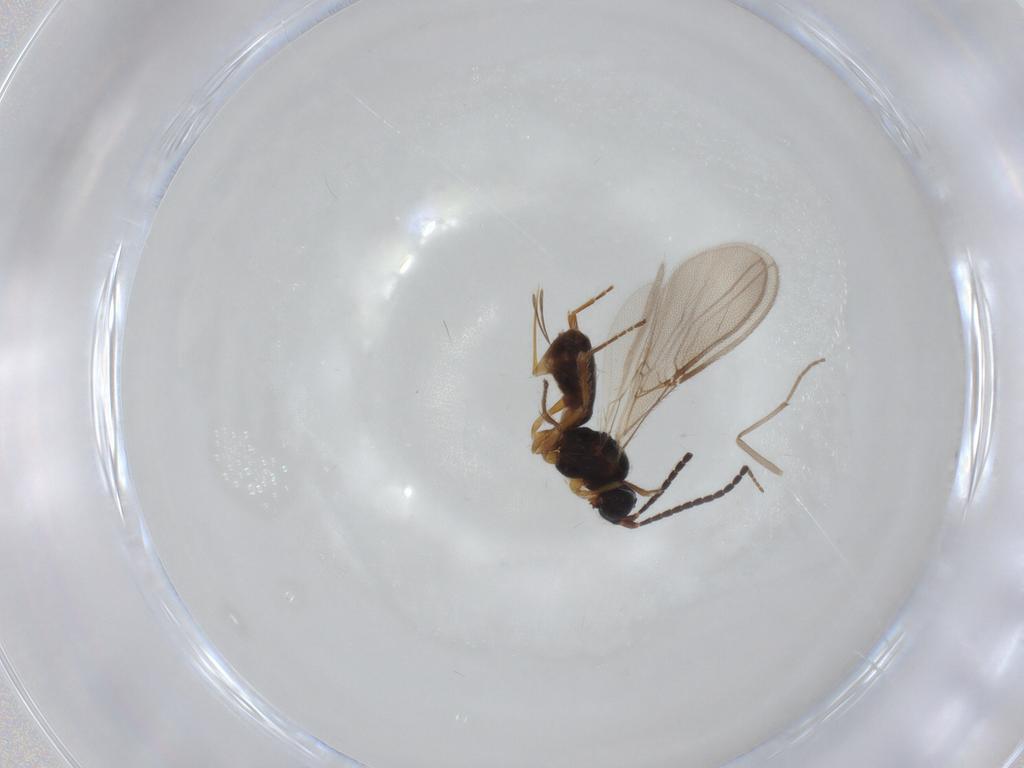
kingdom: Animalia
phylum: Arthropoda
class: Insecta
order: Hymenoptera
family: Braconidae
